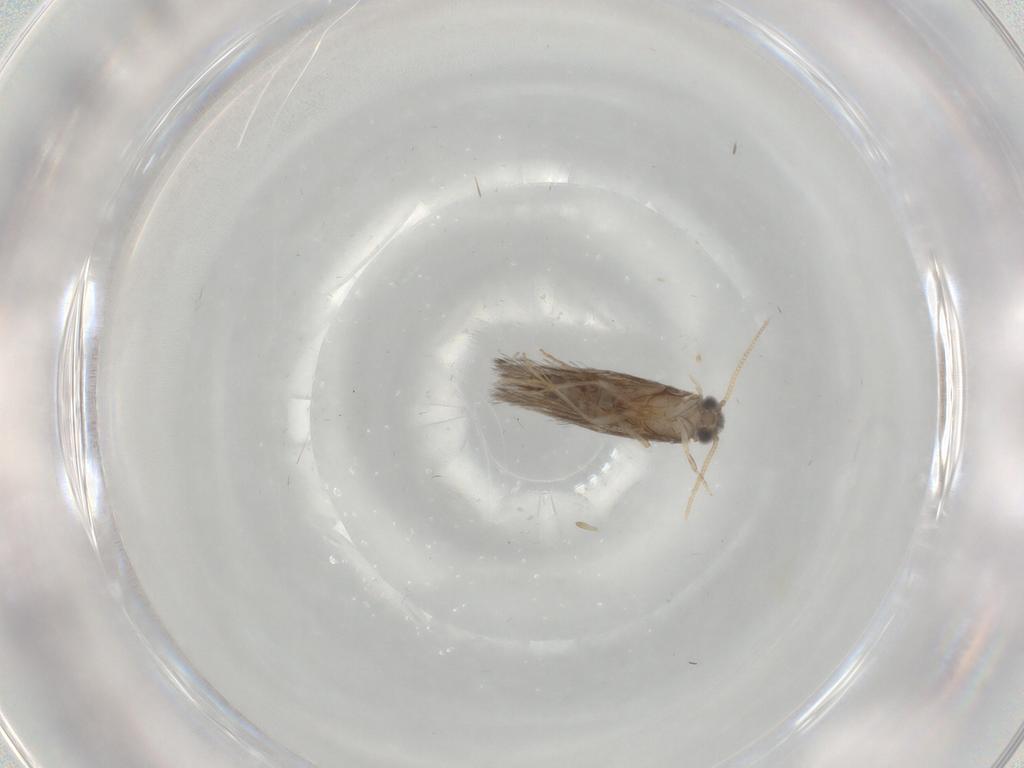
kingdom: Animalia
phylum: Arthropoda
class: Insecta
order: Trichoptera
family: Hydroptilidae
